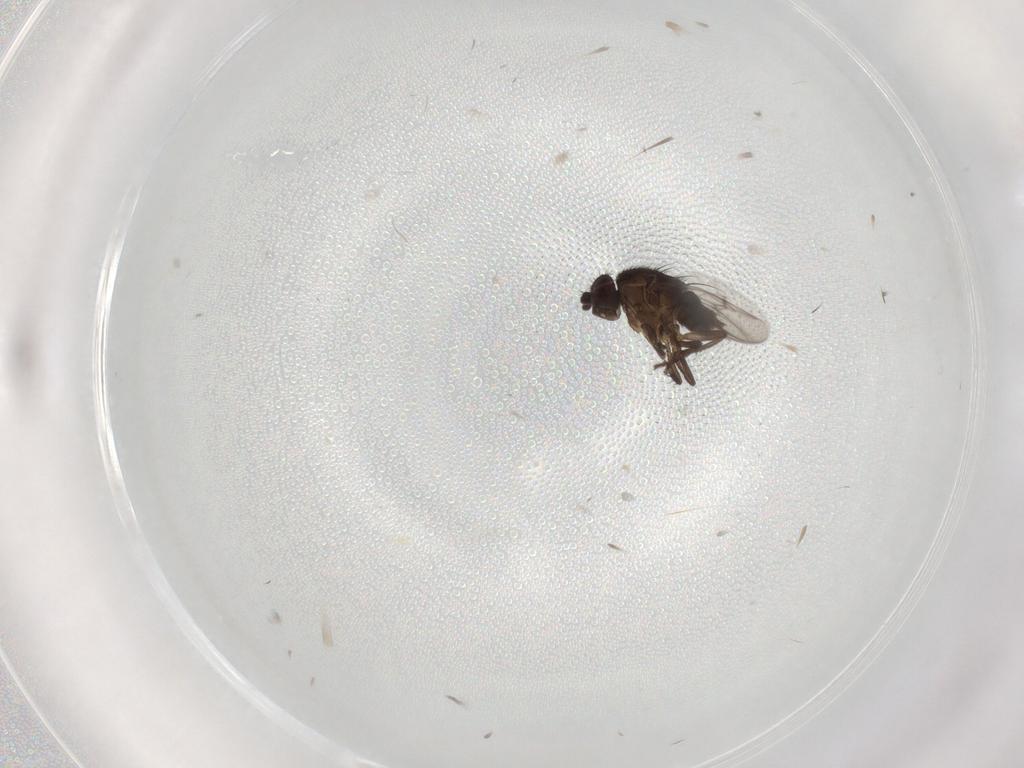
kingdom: Animalia
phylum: Arthropoda
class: Insecta
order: Diptera
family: Sphaeroceridae
